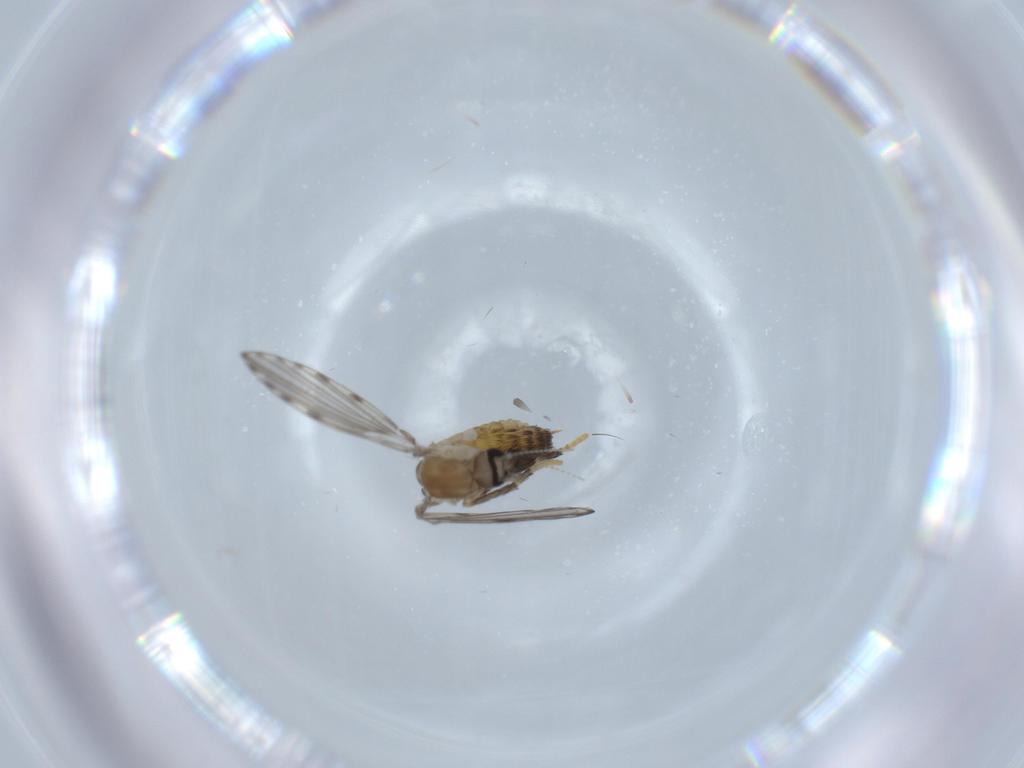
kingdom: Animalia
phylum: Arthropoda
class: Insecta
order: Diptera
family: Psychodidae
